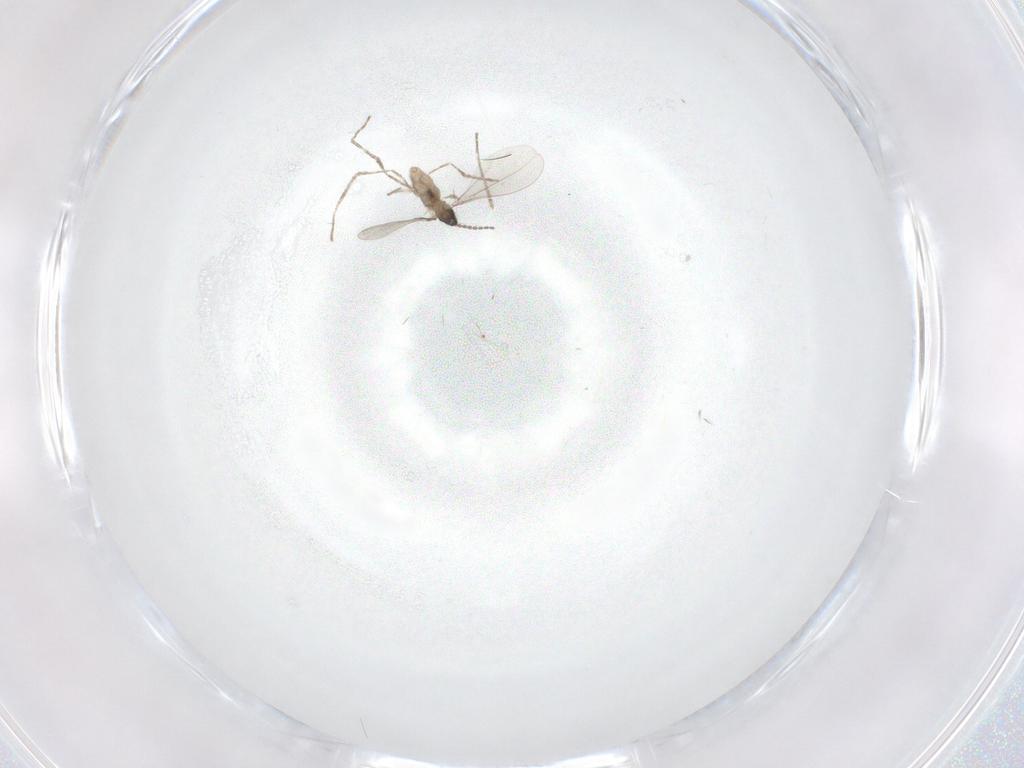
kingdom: Animalia
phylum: Arthropoda
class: Insecta
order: Diptera
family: Cecidomyiidae
